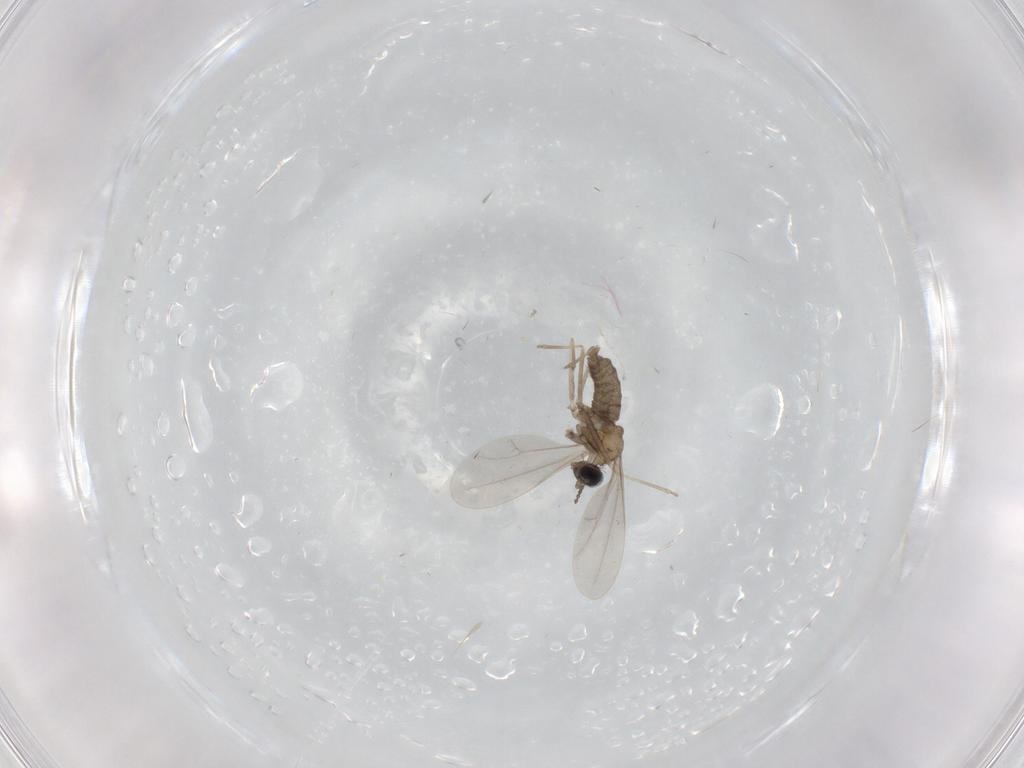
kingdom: Animalia
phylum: Arthropoda
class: Insecta
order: Diptera
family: Cecidomyiidae
